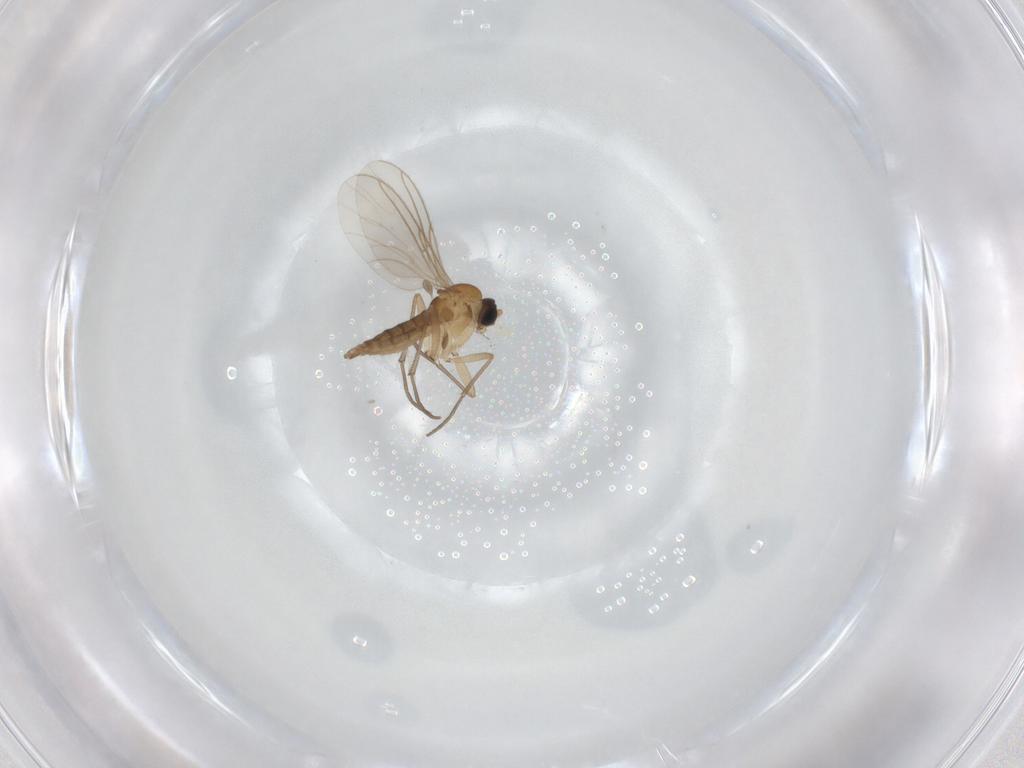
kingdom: Animalia
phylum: Arthropoda
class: Insecta
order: Diptera
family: Sciaridae
